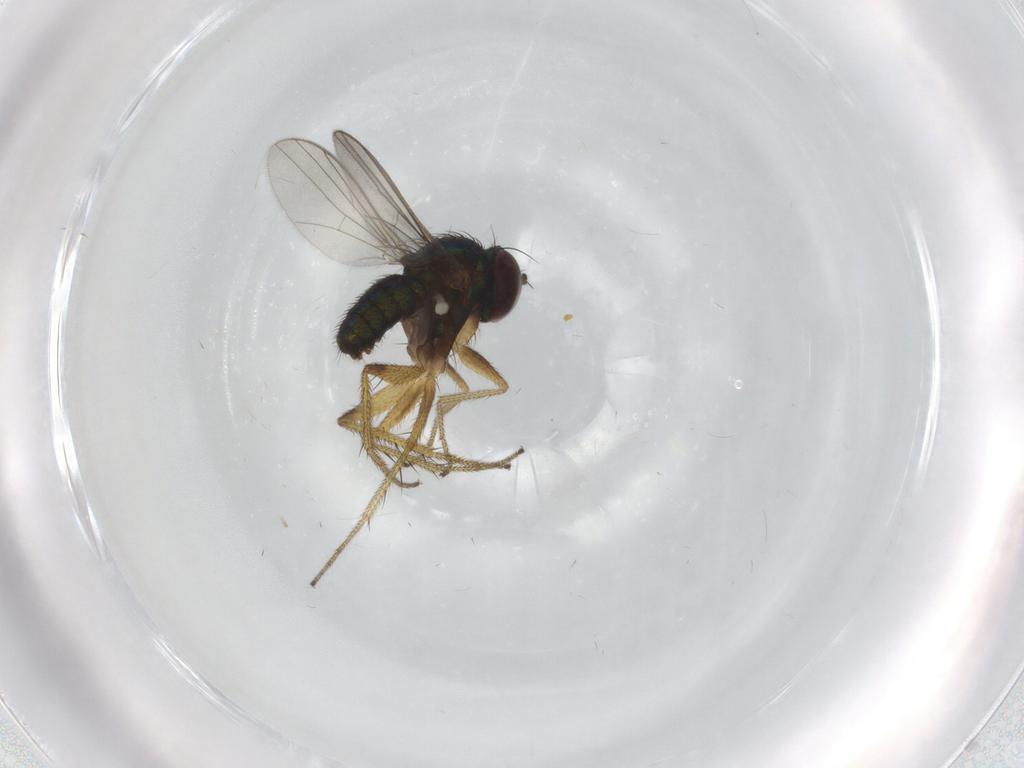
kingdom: Animalia
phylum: Arthropoda
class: Insecta
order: Diptera
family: Dolichopodidae
